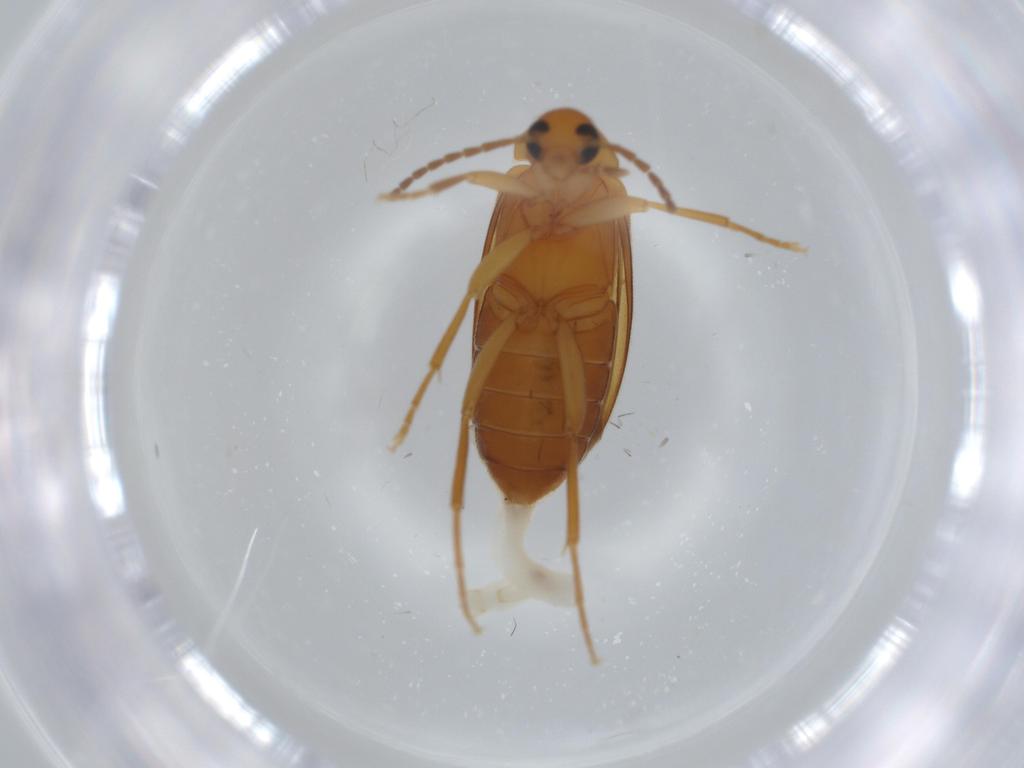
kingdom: Animalia
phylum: Arthropoda
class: Insecta
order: Coleoptera
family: Scraptiidae
